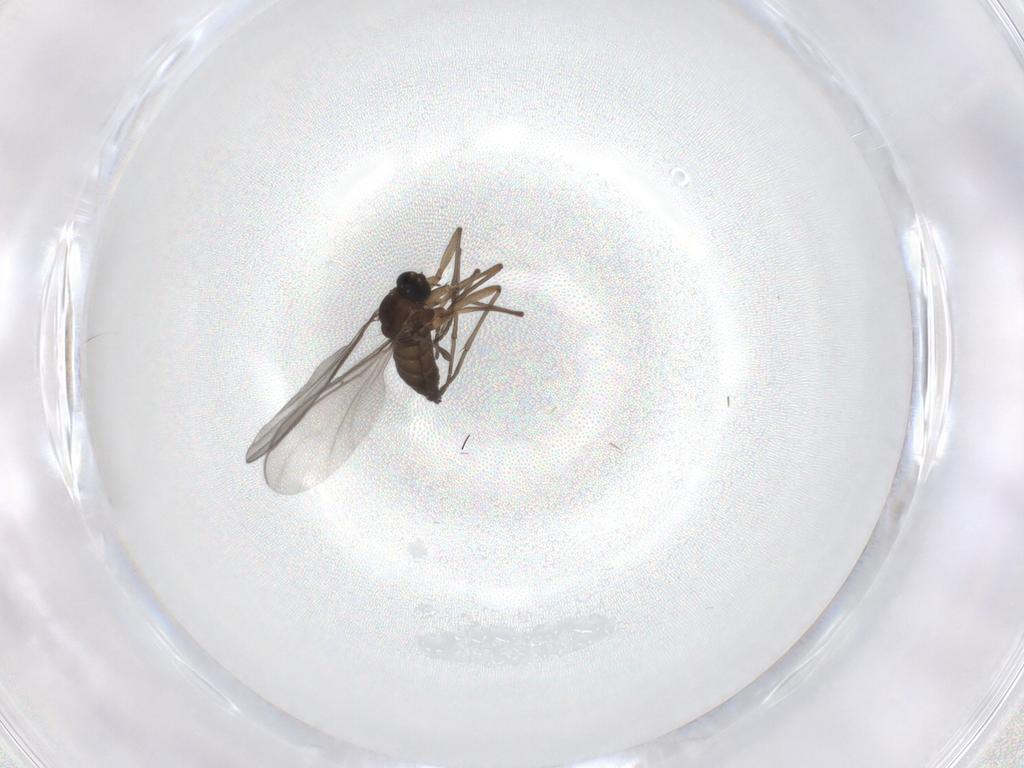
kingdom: Animalia
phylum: Arthropoda
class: Insecta
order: Diptera
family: Sciaridae
